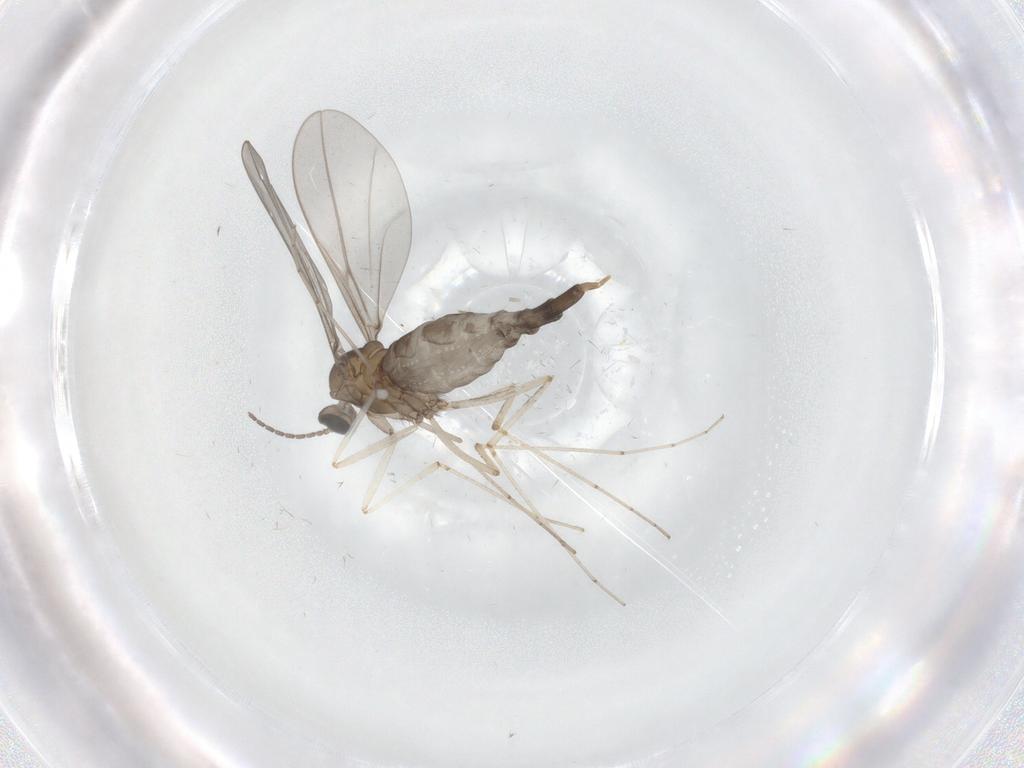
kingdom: Animalia
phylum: Arthropoda
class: Insecta
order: Diptera
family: Cecidomyiidae
